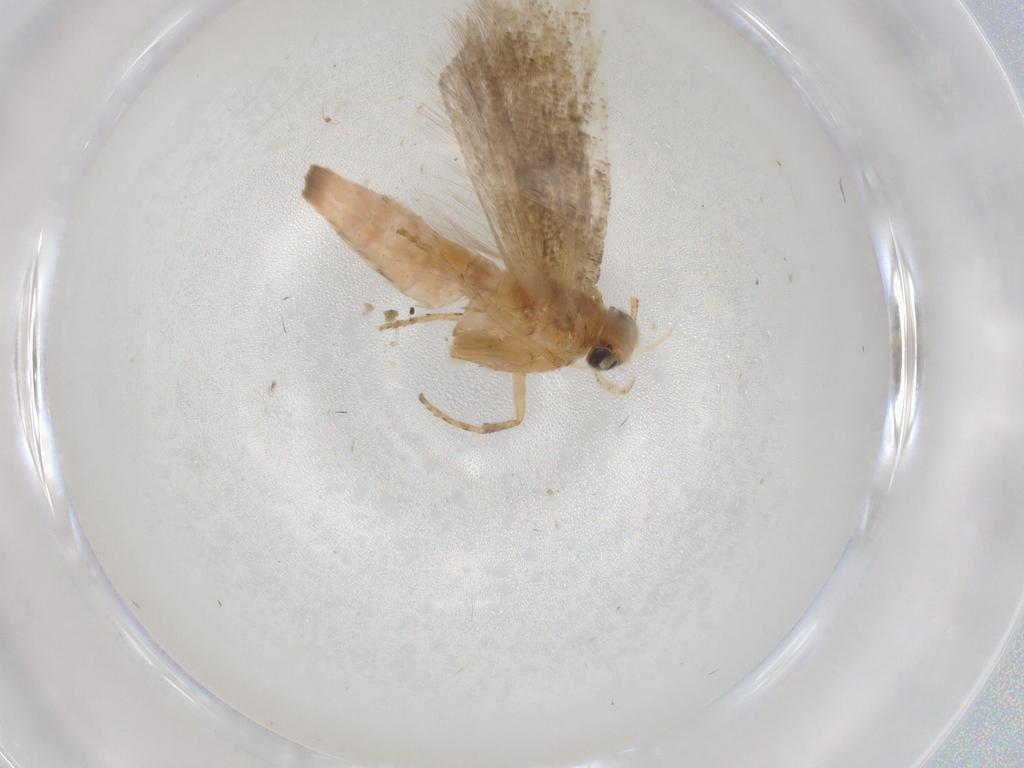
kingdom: Animalia
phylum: Arthropoda
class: Insecta
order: Lepidoptera
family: Gelechiidae
